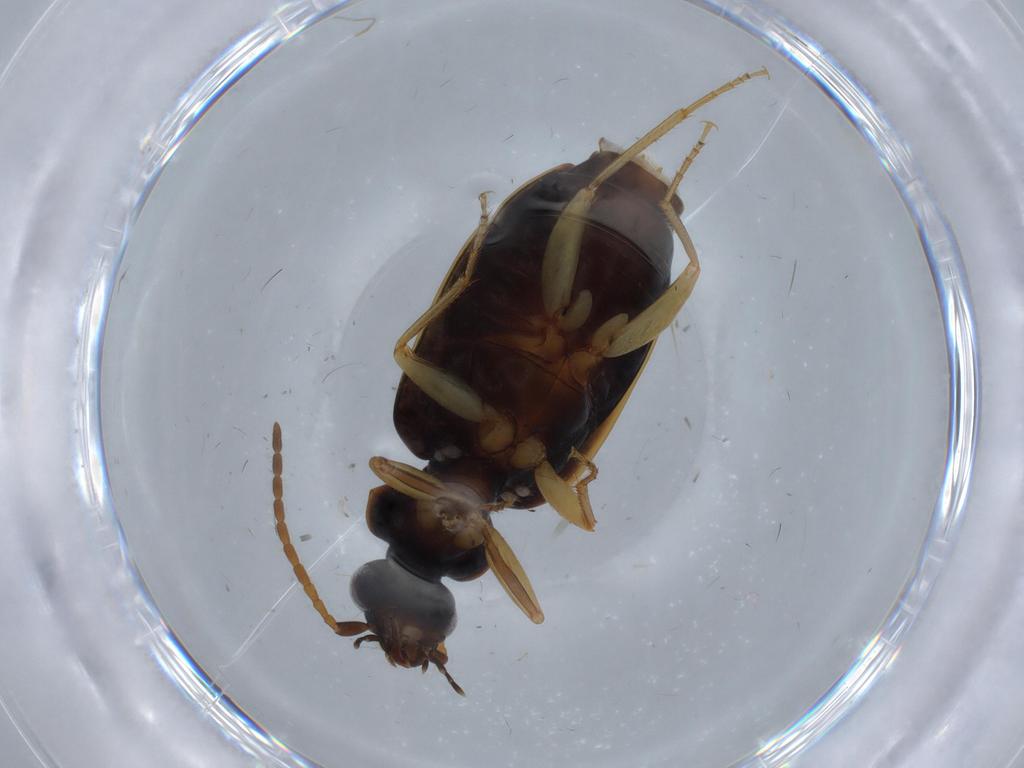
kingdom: Animalia
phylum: Arthropoda
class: Insecta
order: Coleoptera
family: Carabidae
